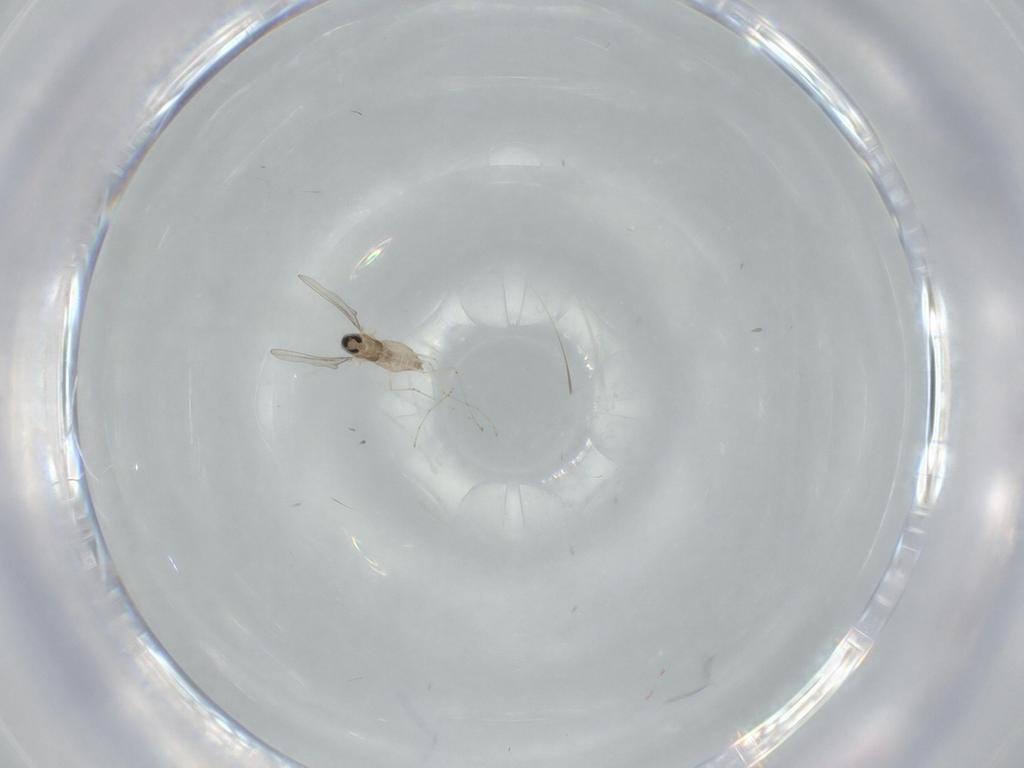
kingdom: Animalia
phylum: Arthropoda
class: Insecta
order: Diptera
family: Cecidomyiidae
